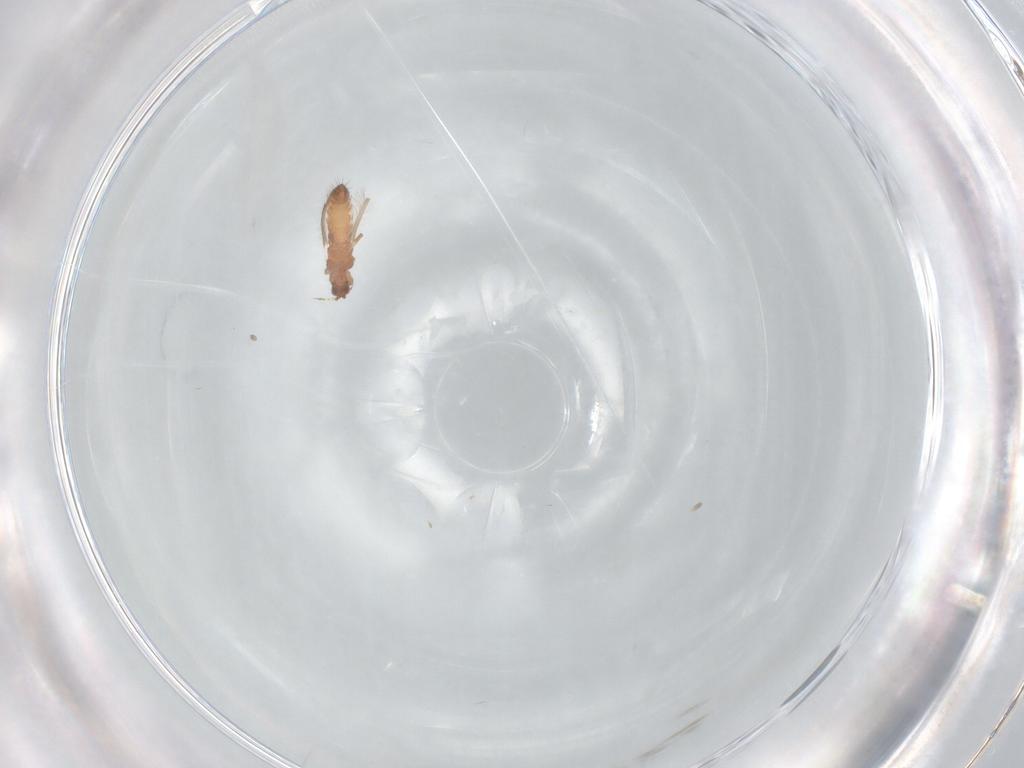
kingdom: Animalia
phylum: Arthropoda
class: Insecta
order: Thysanoptera
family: Thripidae
